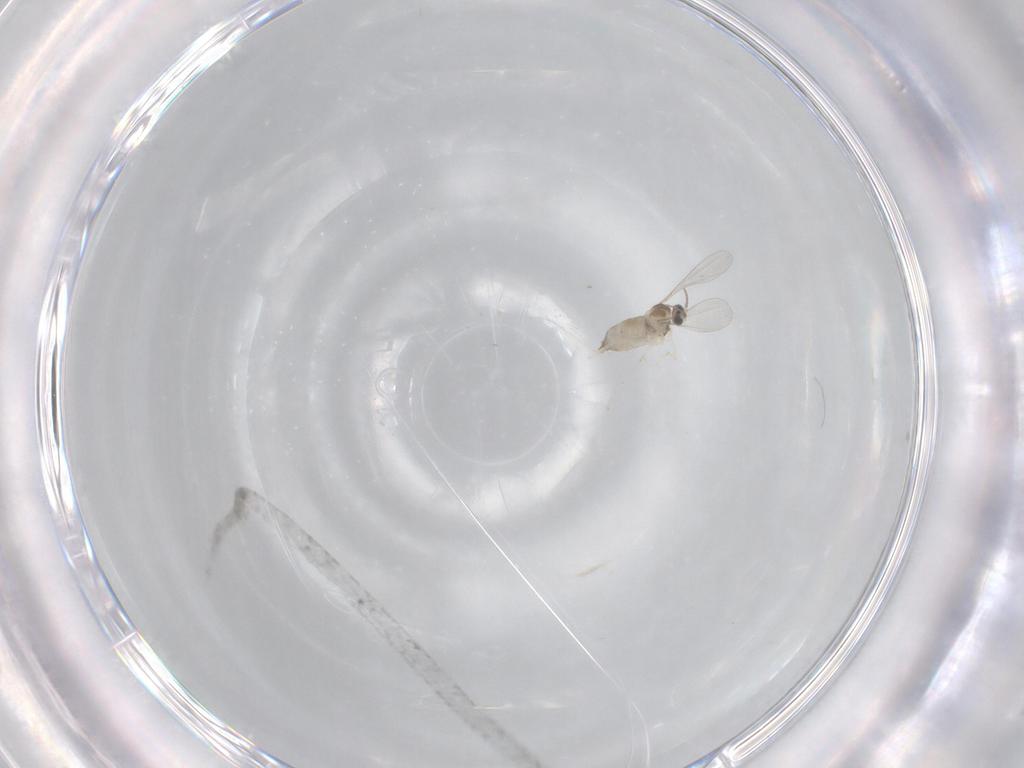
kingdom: Animalia
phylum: Arthropoda
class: Insecta
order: Diptera
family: Cecidomyiidae
